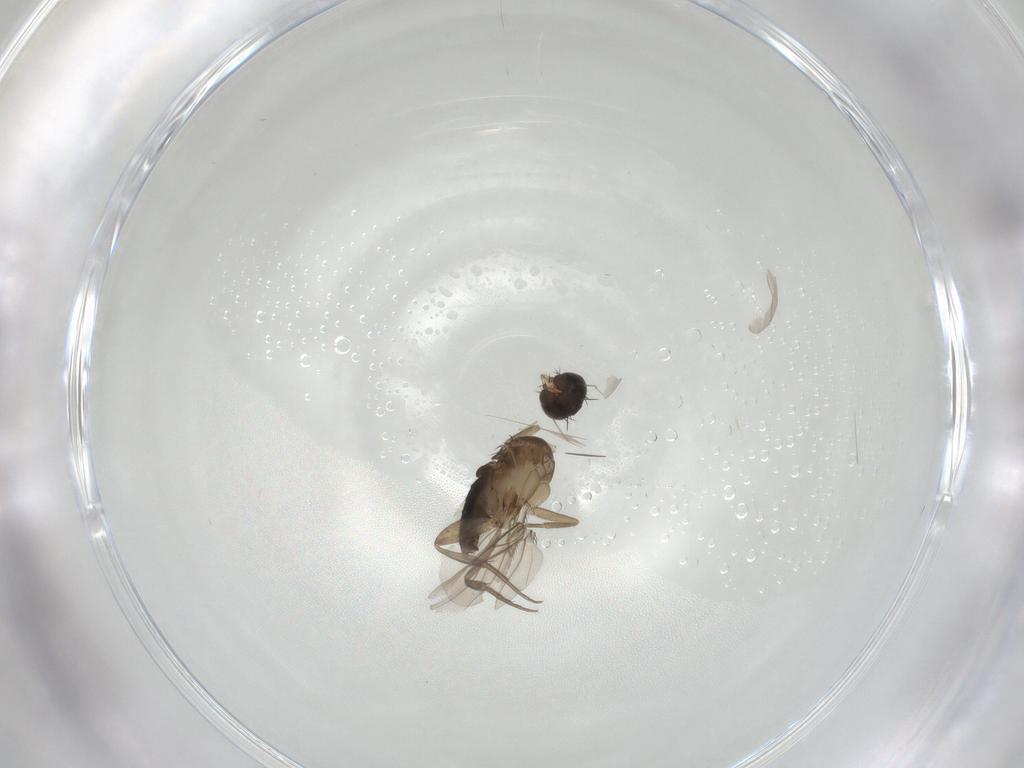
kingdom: Animalia
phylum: Arthropoda
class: Insecta
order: Diptera
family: Phoridae
